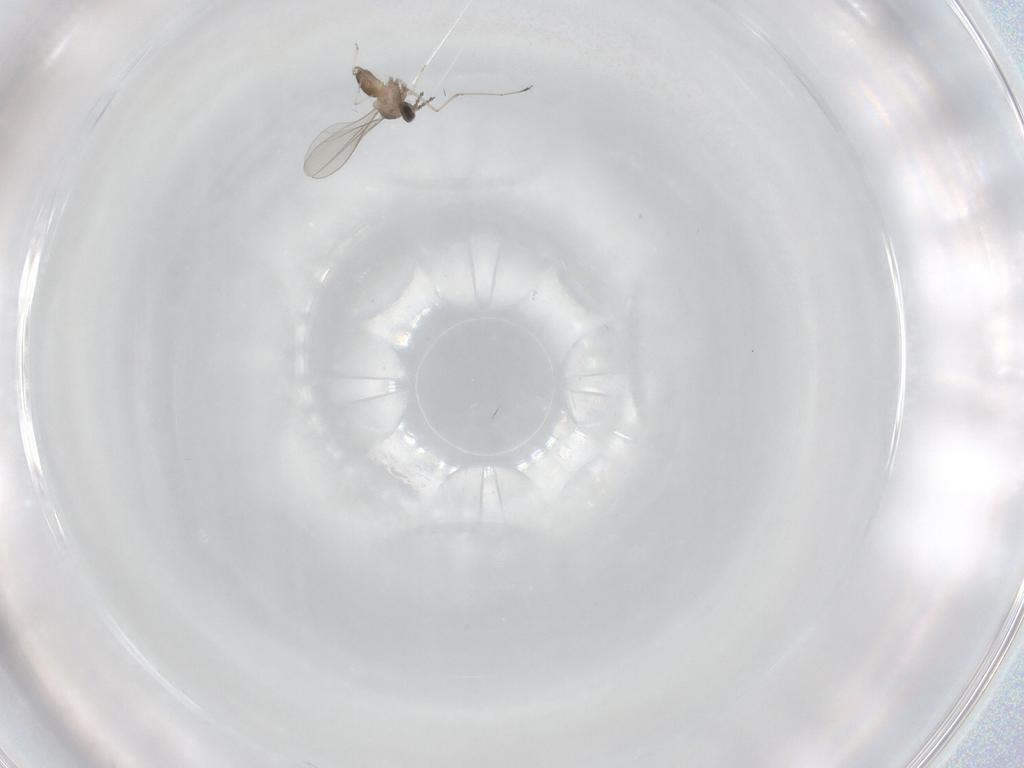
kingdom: Animalia
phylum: Arthropoda
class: Insecta
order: Diptera
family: Cecidomyiidae
